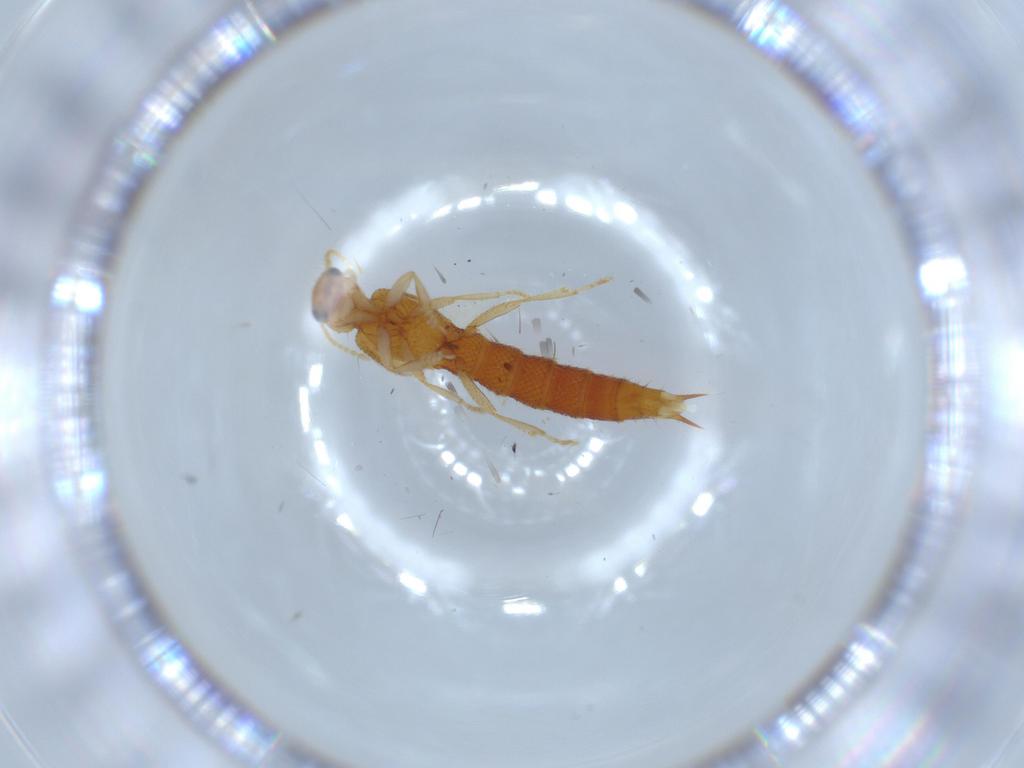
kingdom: Animalia
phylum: Arthropoda
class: Insecta
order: Coleoptera
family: Staphylinidae
